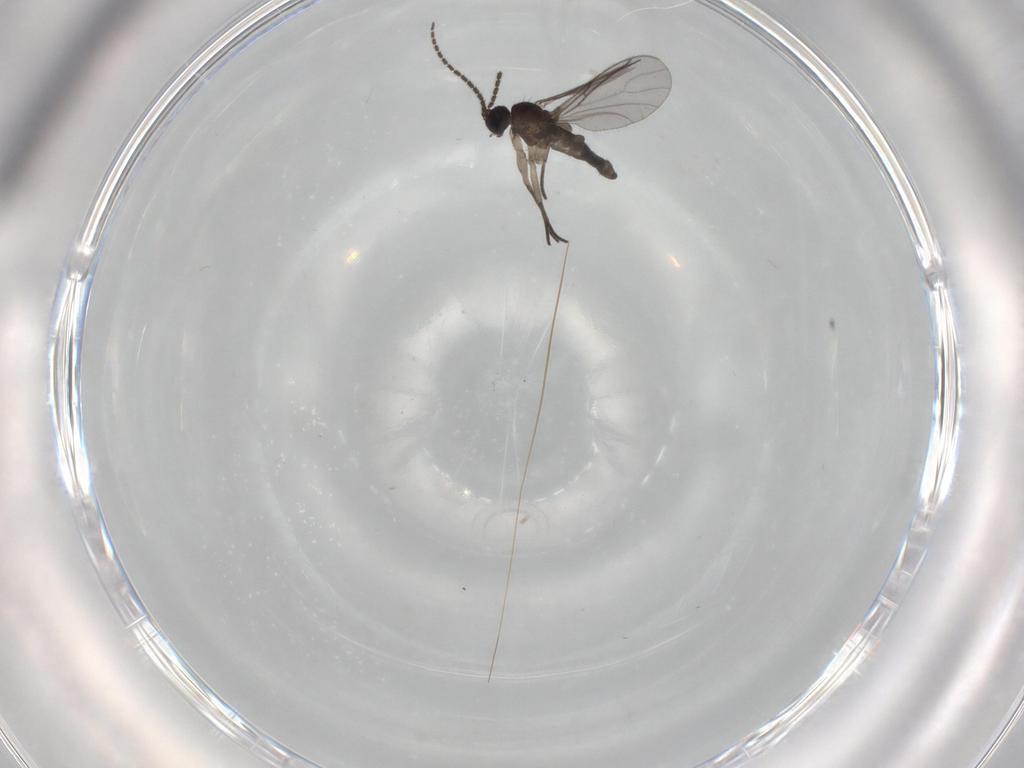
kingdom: Animalia
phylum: Arthropoda
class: Insecta
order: Diptera
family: Sciaridae
